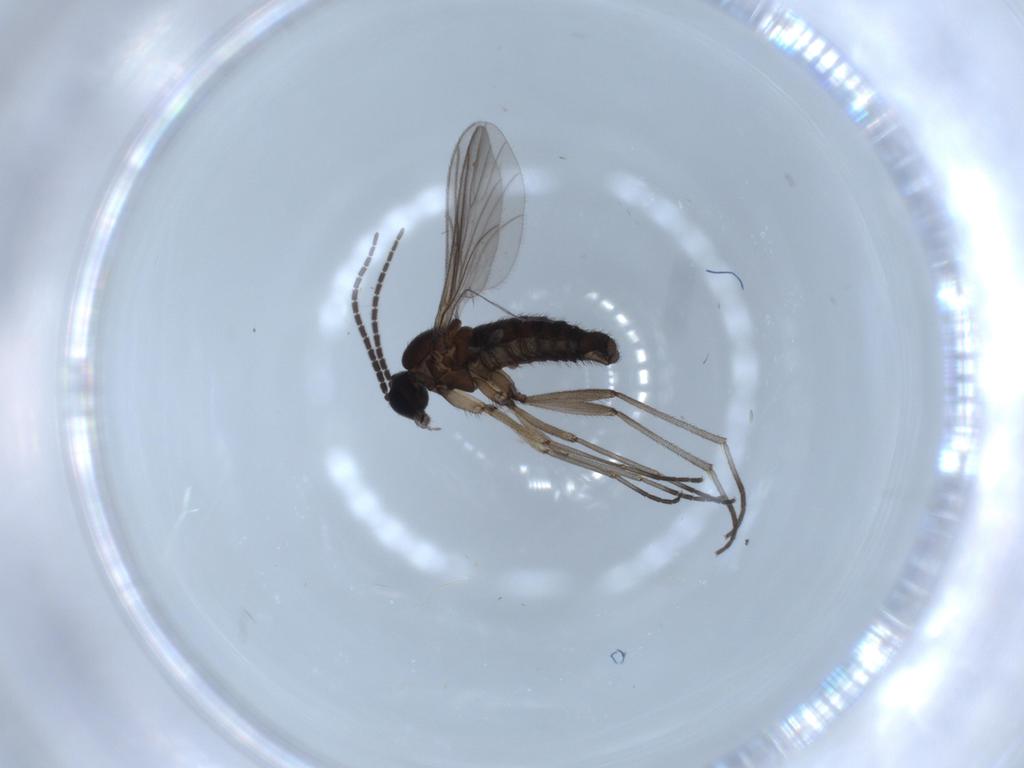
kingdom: Animalia
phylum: Arthropoda
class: Insecta
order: Diptera
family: Sciaridae
